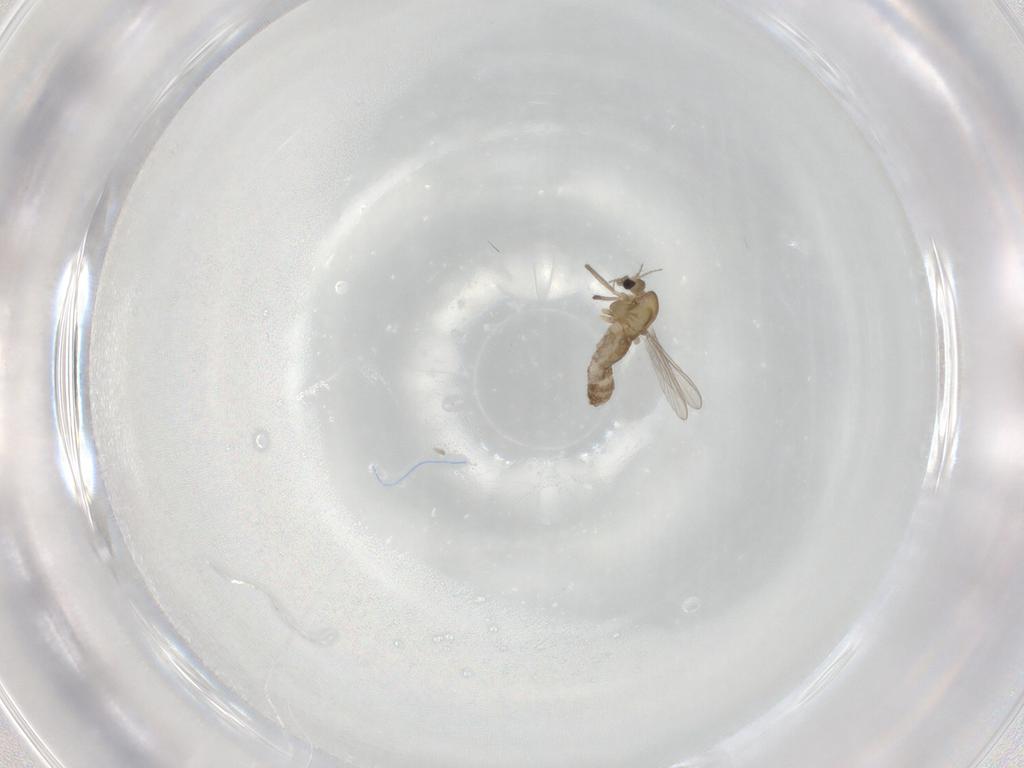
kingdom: Animalia
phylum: Arthropoda
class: Insecta
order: Diptera
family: Chironomidae
